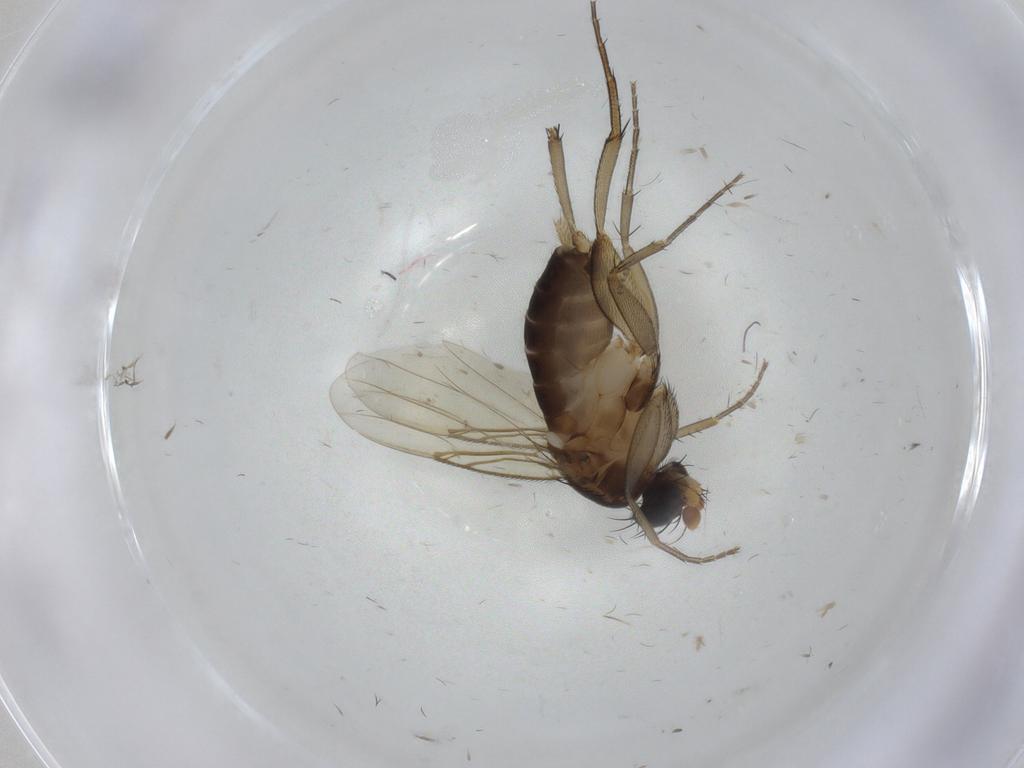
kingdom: Animalia
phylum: Arthropoda
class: Insecta
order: Diptera
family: Phoridae
